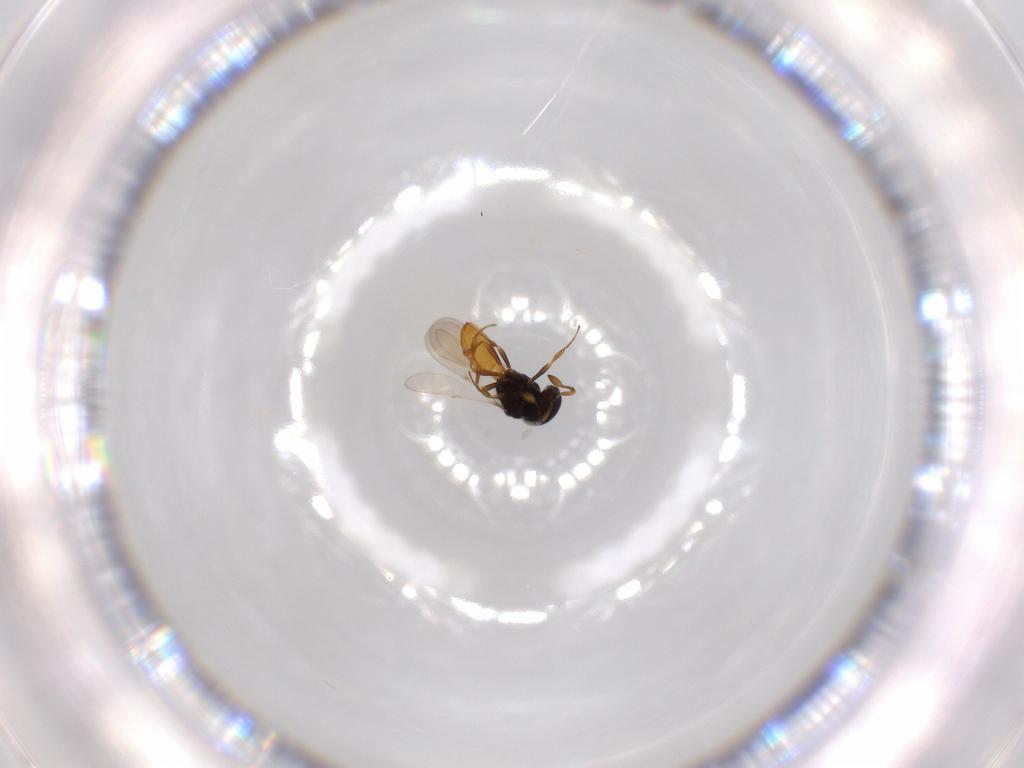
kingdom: Animalia
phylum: Arthropoda
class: Insecta
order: Hymenoptera
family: Scelionidae
